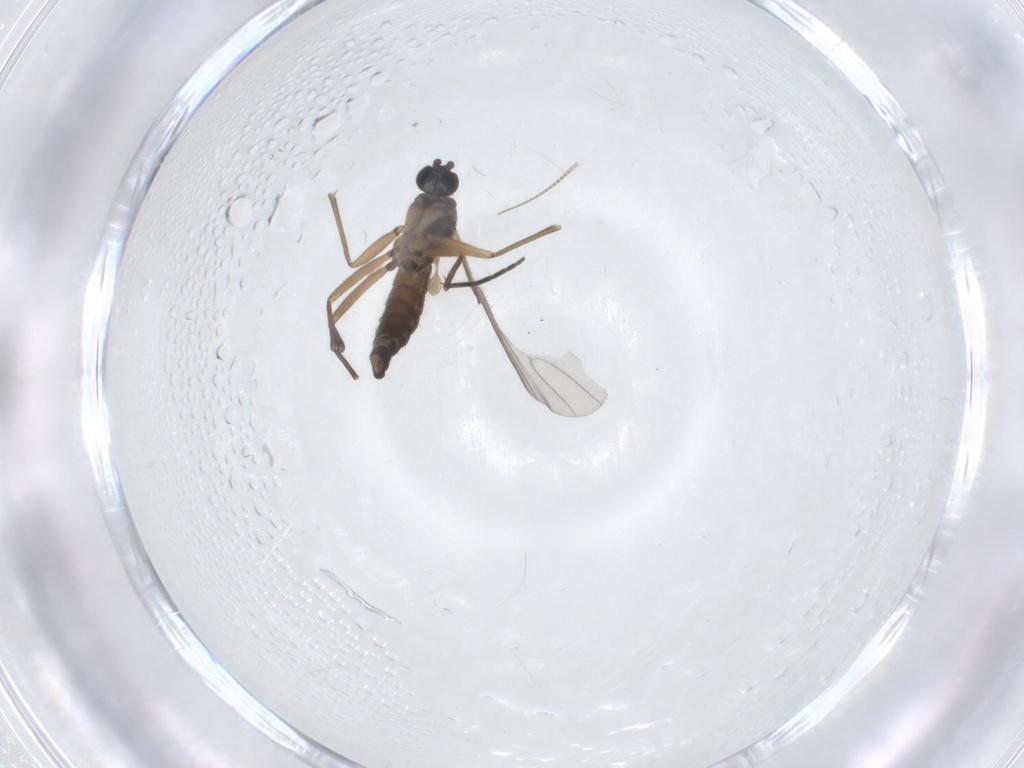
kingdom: Animalia
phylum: Arthropoda
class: Insecta
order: Diptera
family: Sciaridae
